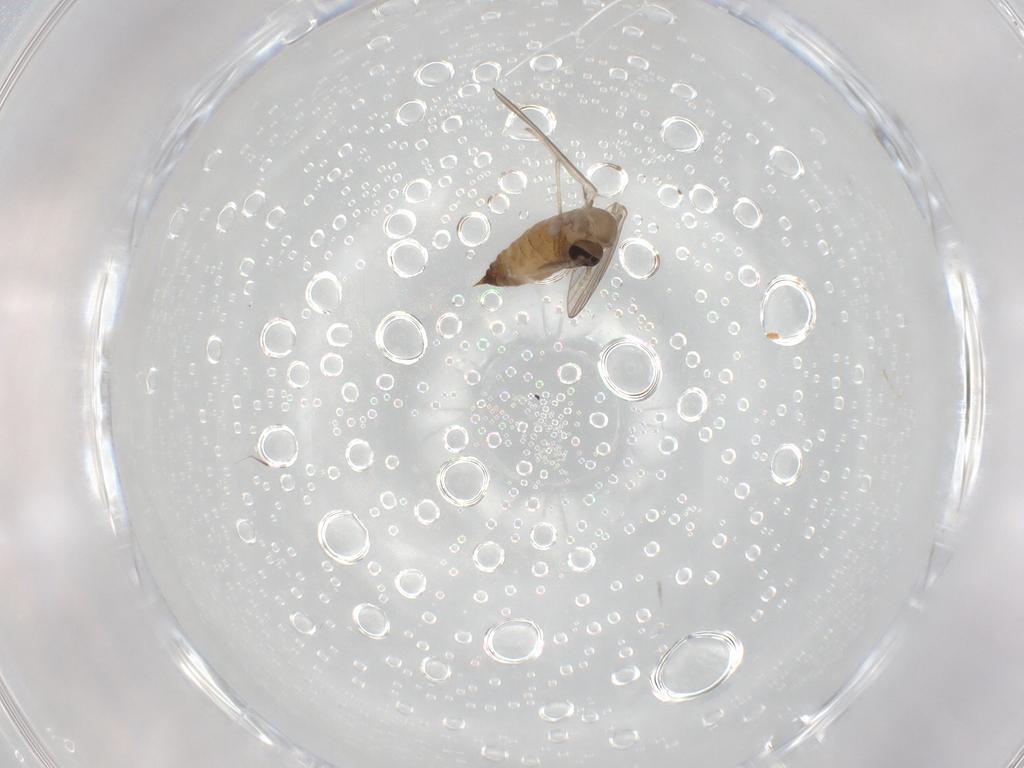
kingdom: Animalia
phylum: Arthropoda
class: Insecta
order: Diptera
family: Psychodidae
